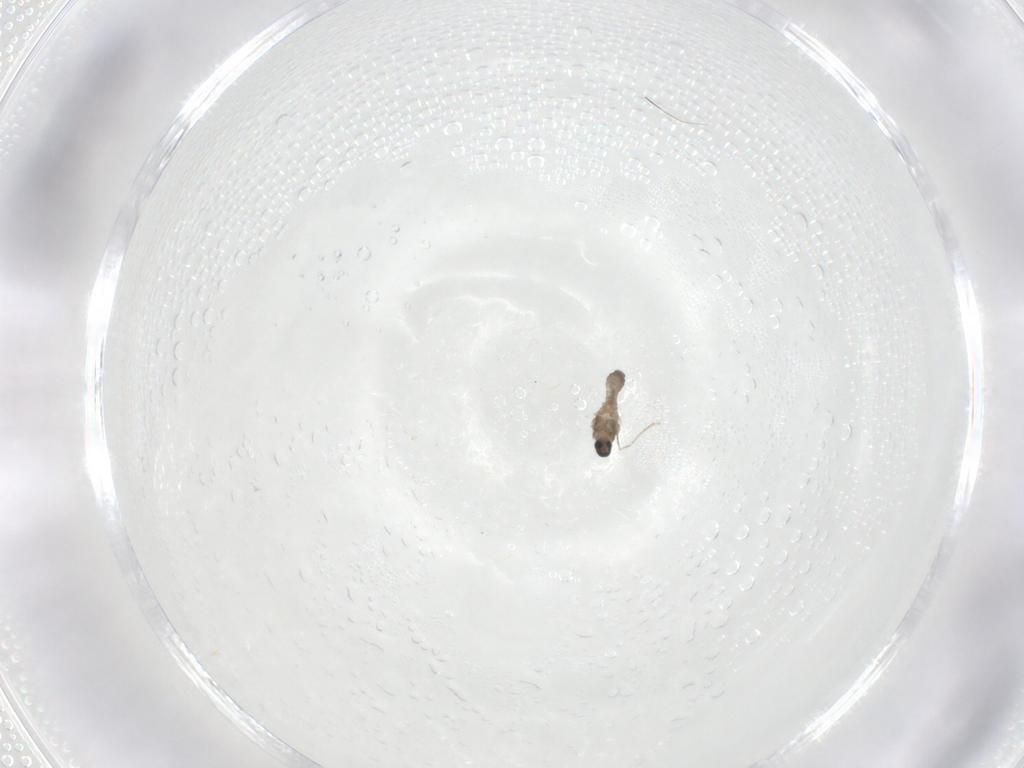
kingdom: Animalia
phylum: Arthropoda
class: Insecta
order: Diptera
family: Cecidomyiidae
